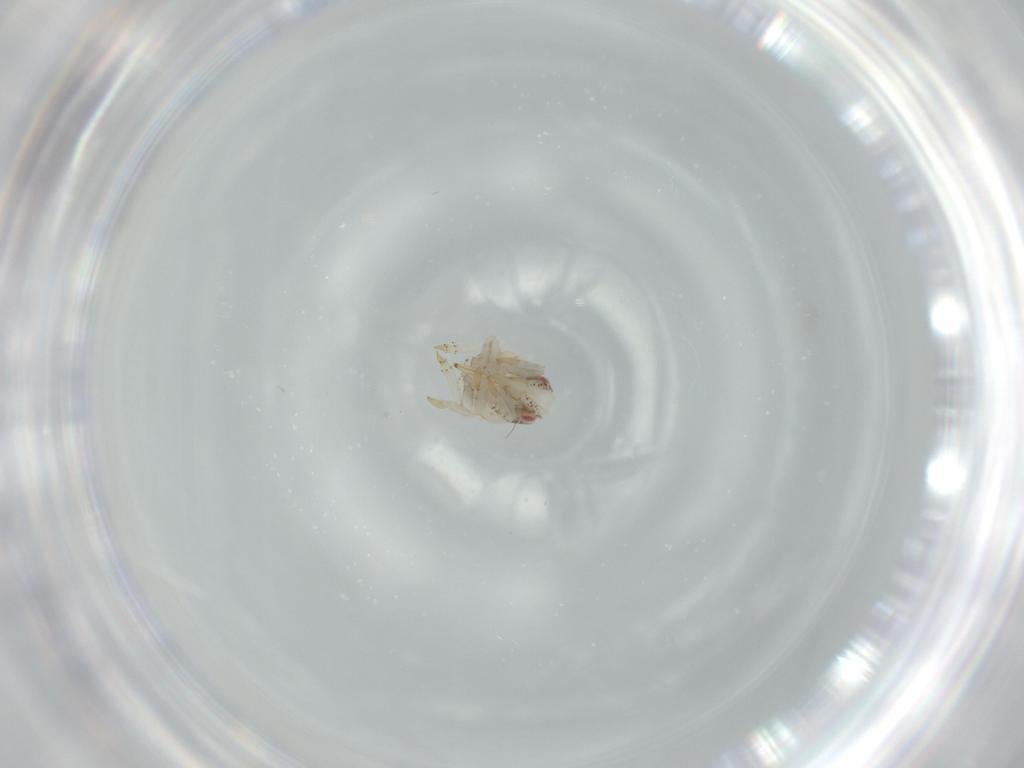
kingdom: Animalia
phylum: Arthropoda
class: Insecta
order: Hemiptera
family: Acanaloniidae
